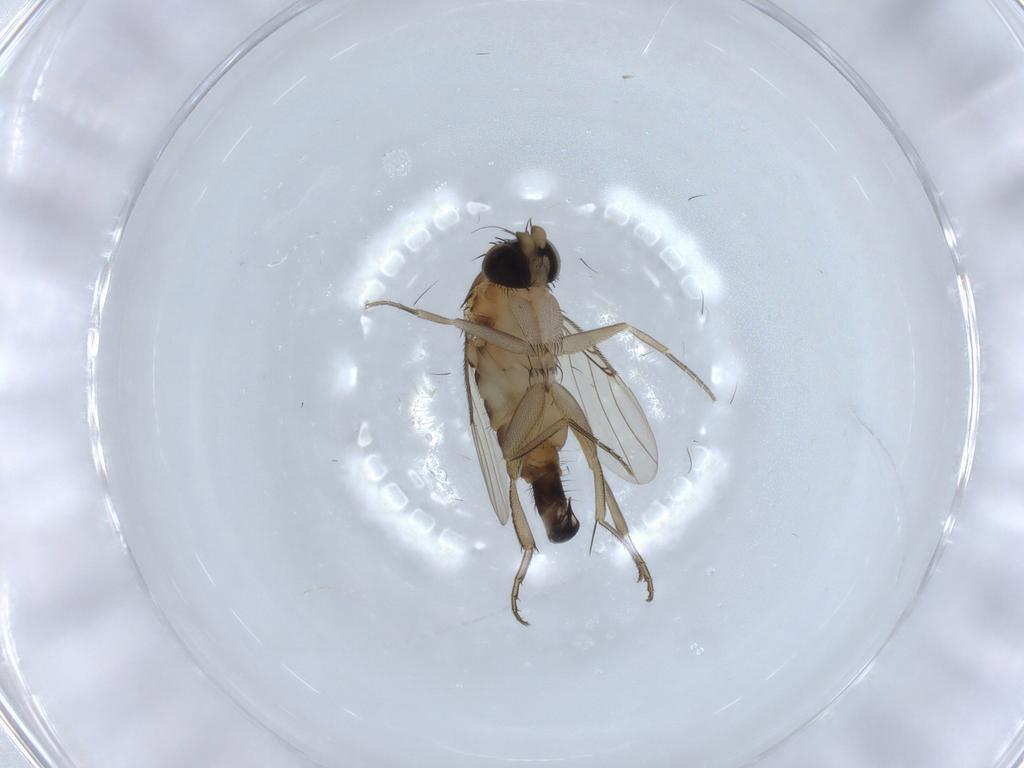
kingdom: Animalia
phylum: Arthropoda
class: Insecta
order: Diptera
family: Phoridae
